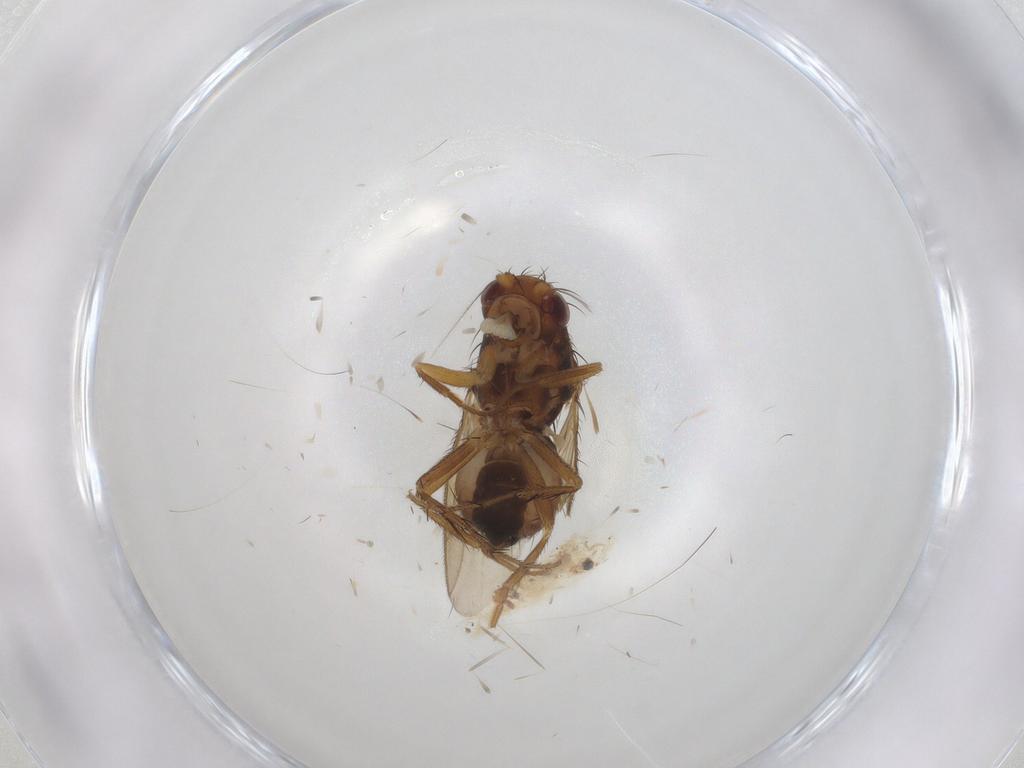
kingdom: Animalia
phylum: Arthropoda
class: Insecta
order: Diptera
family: Sphaeroceridae
